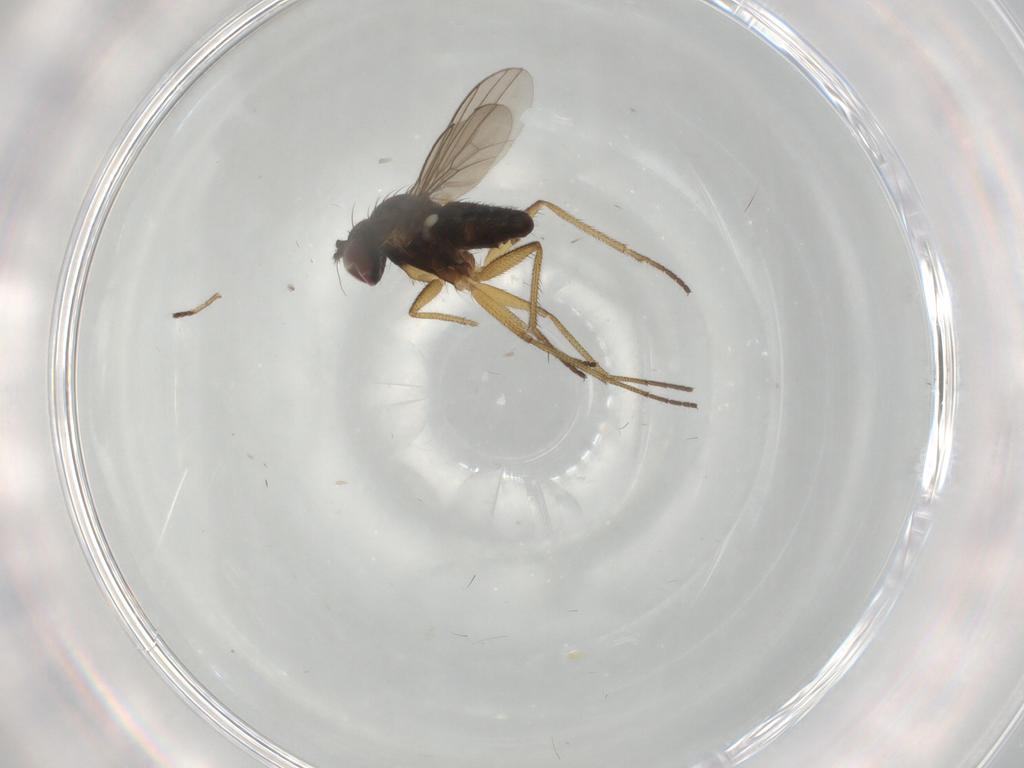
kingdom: Animalia
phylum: Arthropoda
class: Insecta
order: Diptera
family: Dolichopodidae
